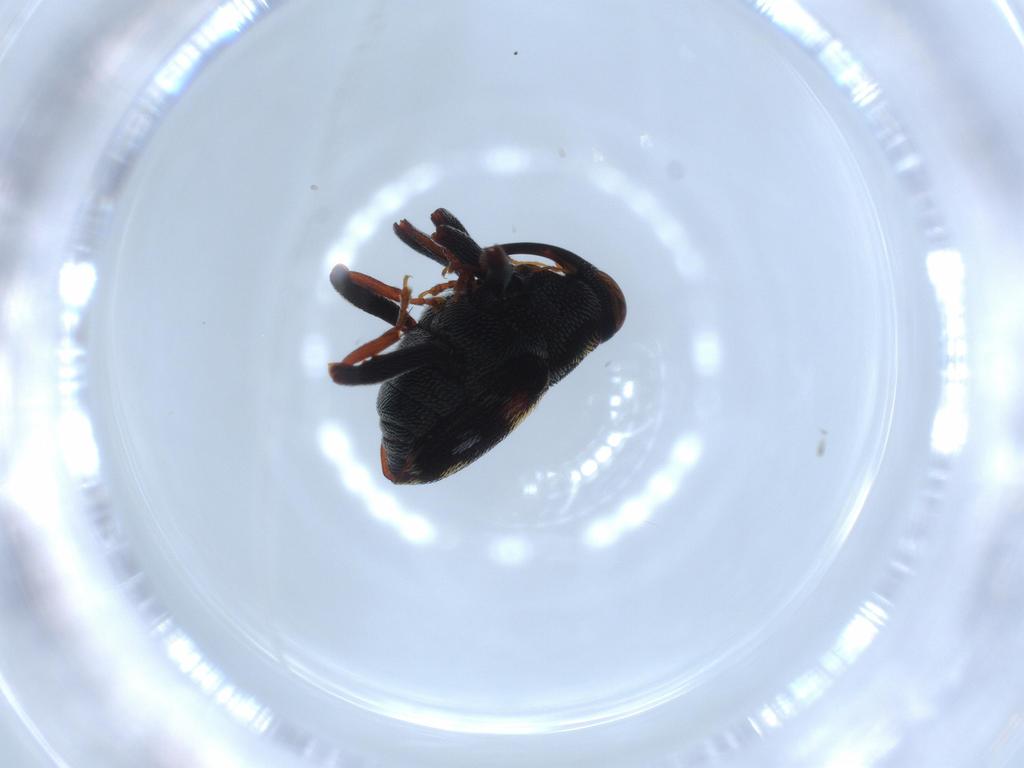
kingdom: Animalia
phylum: Arthropoda
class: Insecta
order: Coleoptera
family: Curculionidae
